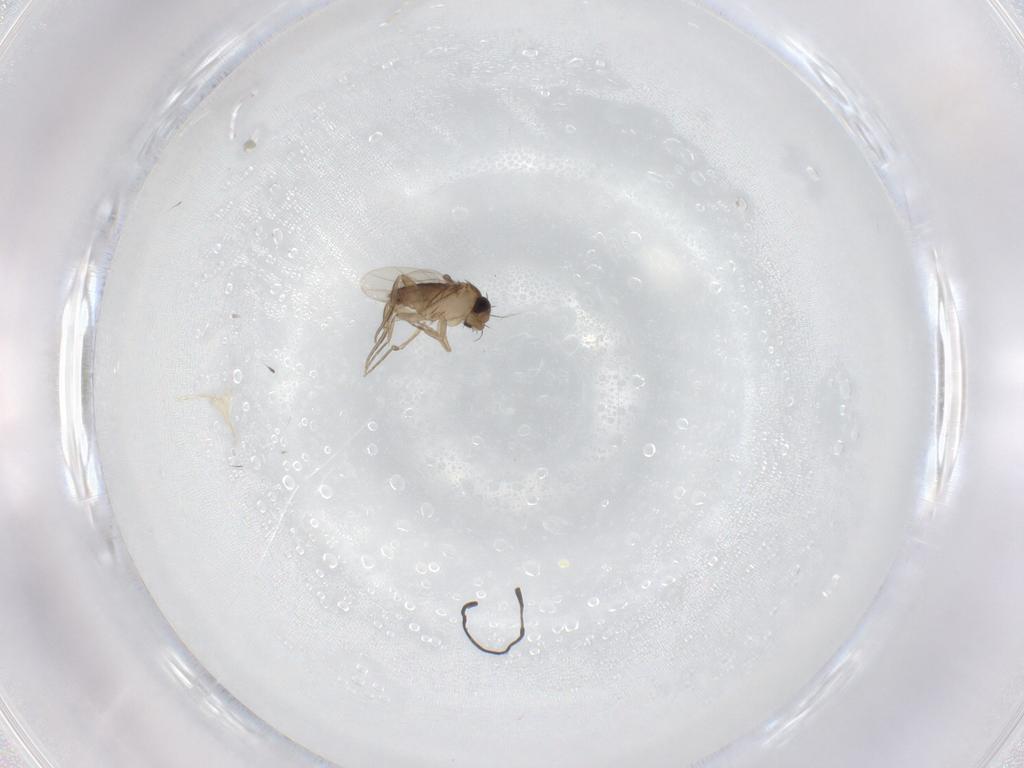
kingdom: Animalia
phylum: Arthropoda
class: Insecta
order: Diptera
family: Phoridae
